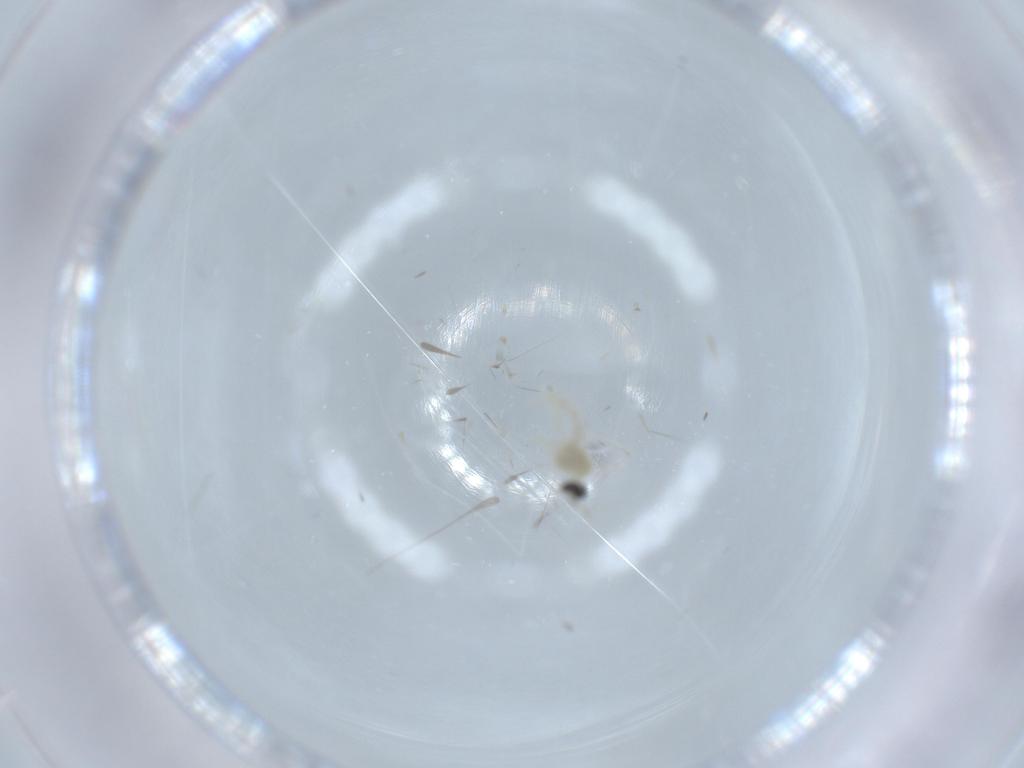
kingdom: Animalia
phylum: Arthropoda
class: Insecta
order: Diptera
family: Cecidomyiidae
